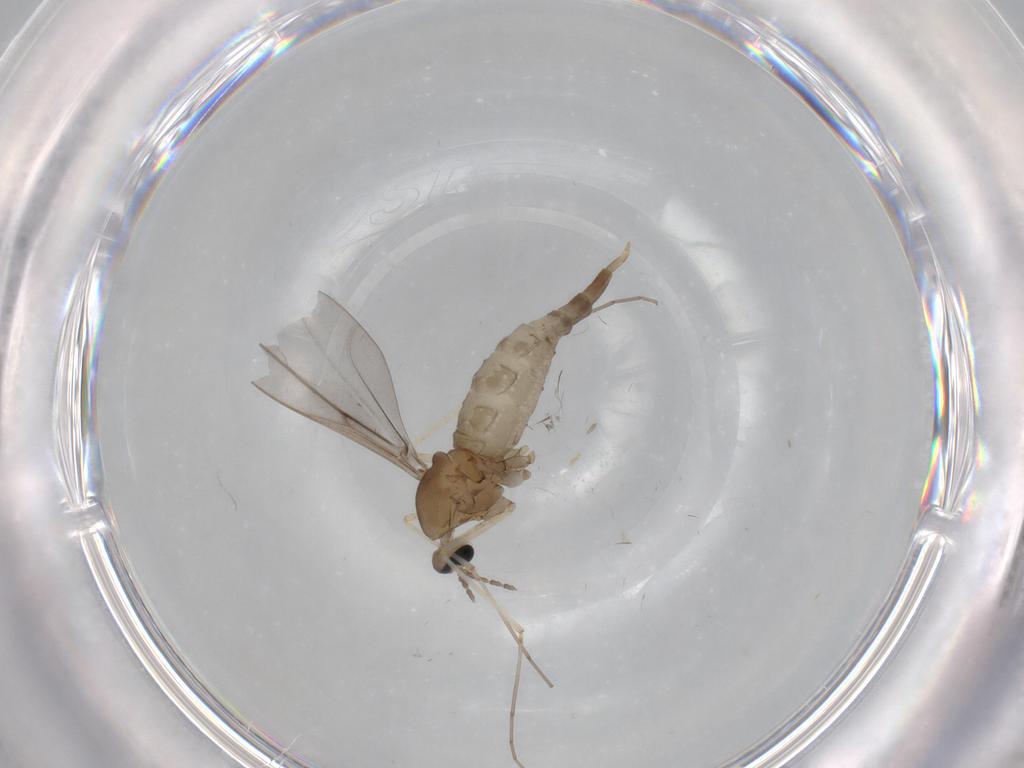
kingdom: Animalia
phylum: Arthropoda
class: Insecta
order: Diptera
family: Cecidomyiidae
